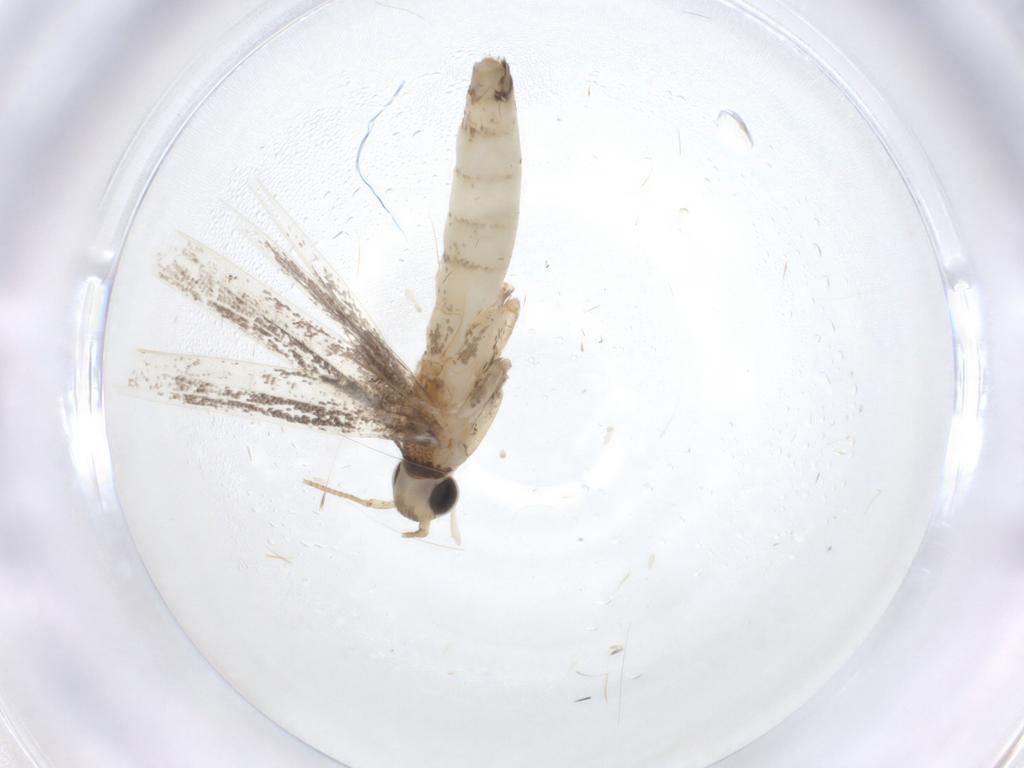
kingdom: Animalia
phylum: Arthropoda
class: Insecta
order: Lepidoptera
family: Gracillariidae
